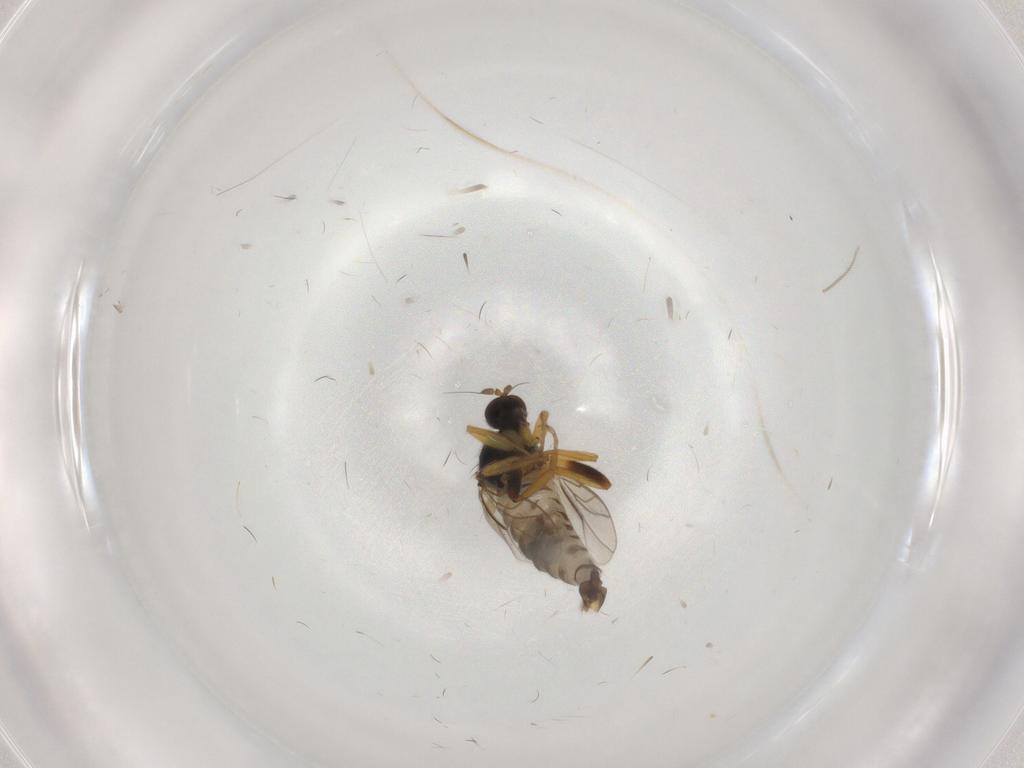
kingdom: Animalia
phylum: Arthropoda
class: Insecta
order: Diptera
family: Hybotidae
